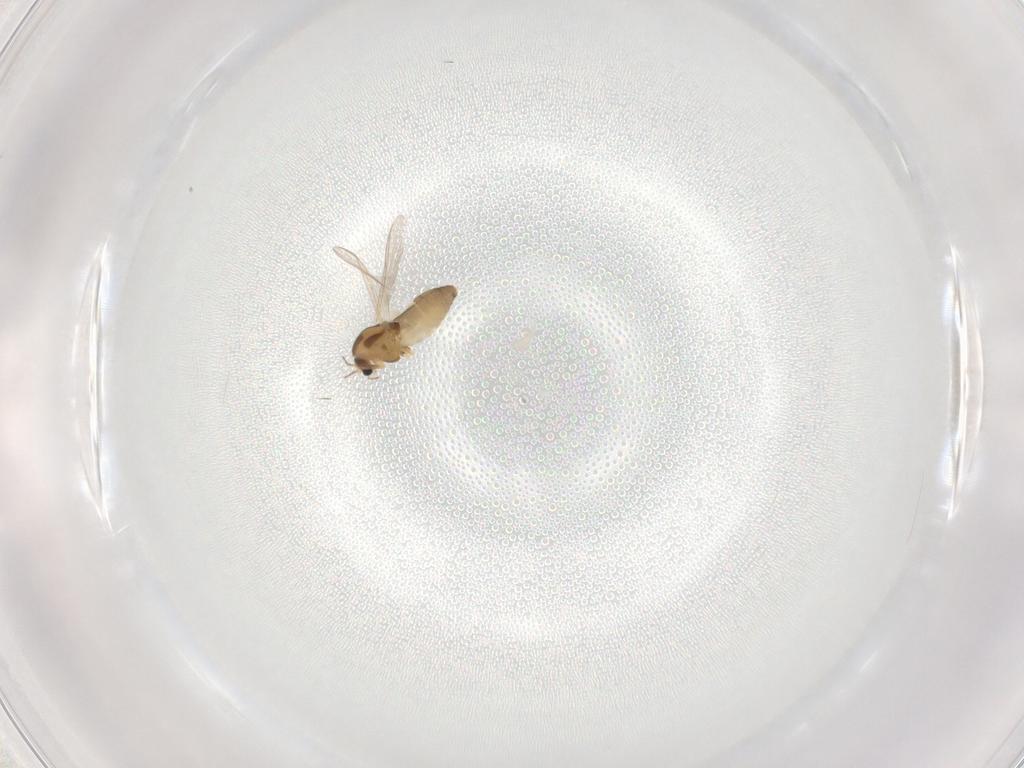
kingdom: Animalia
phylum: Arthropoda
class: Insecta
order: Diptera
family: Chironomidae
